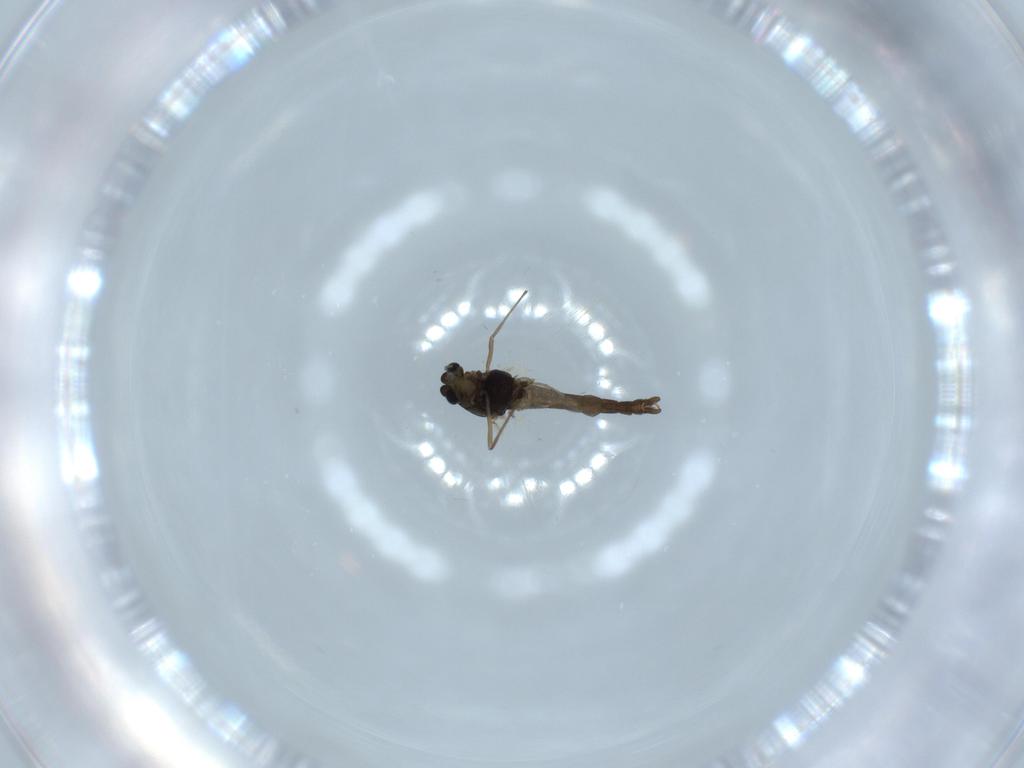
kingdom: Animalia
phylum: Arthropoda
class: Insecta
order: Diptera
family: Chironomidae
